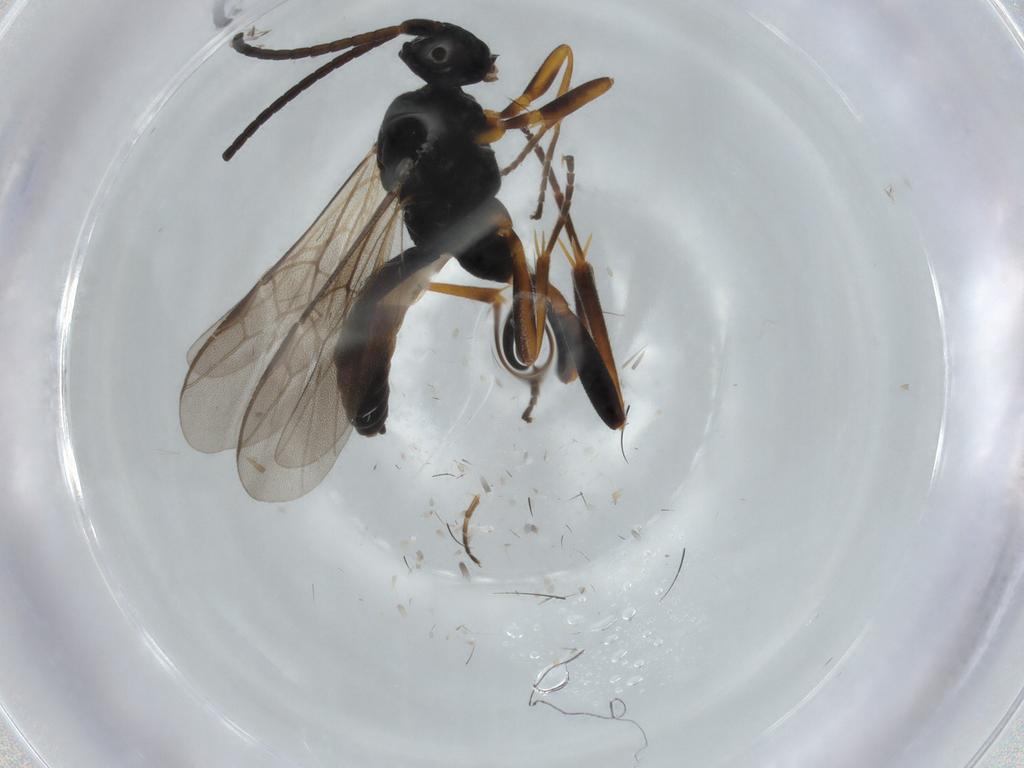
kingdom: Animalia
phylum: Arthropoda
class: Insecta
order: Hymenoptera
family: Braconidae
